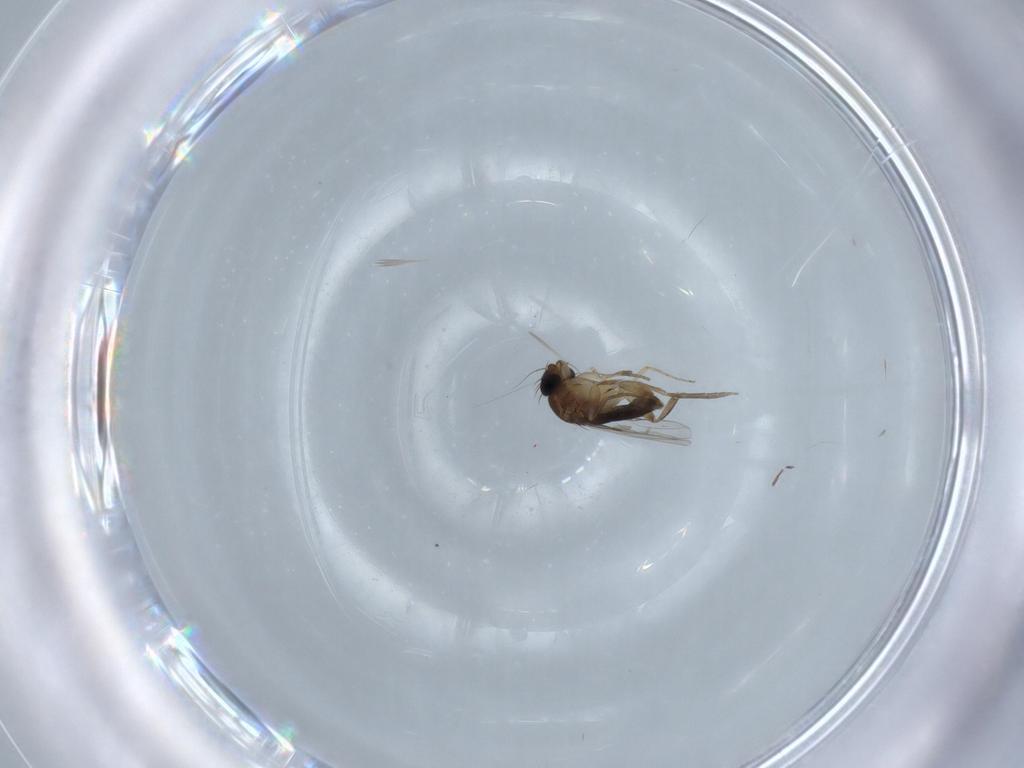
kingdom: Animalia
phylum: Arthropoda
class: Insecta
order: Diptera
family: Phoridae
